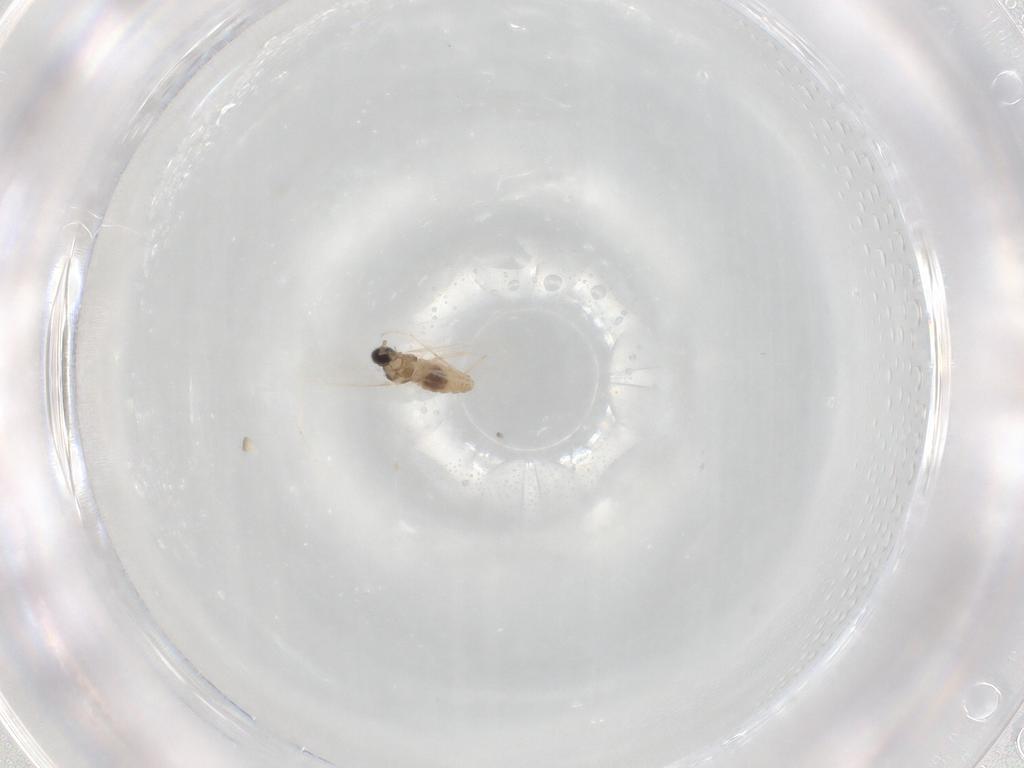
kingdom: Animalia
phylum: Arthropoda
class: Insecta
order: Diptera
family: Cecidomyiidae
